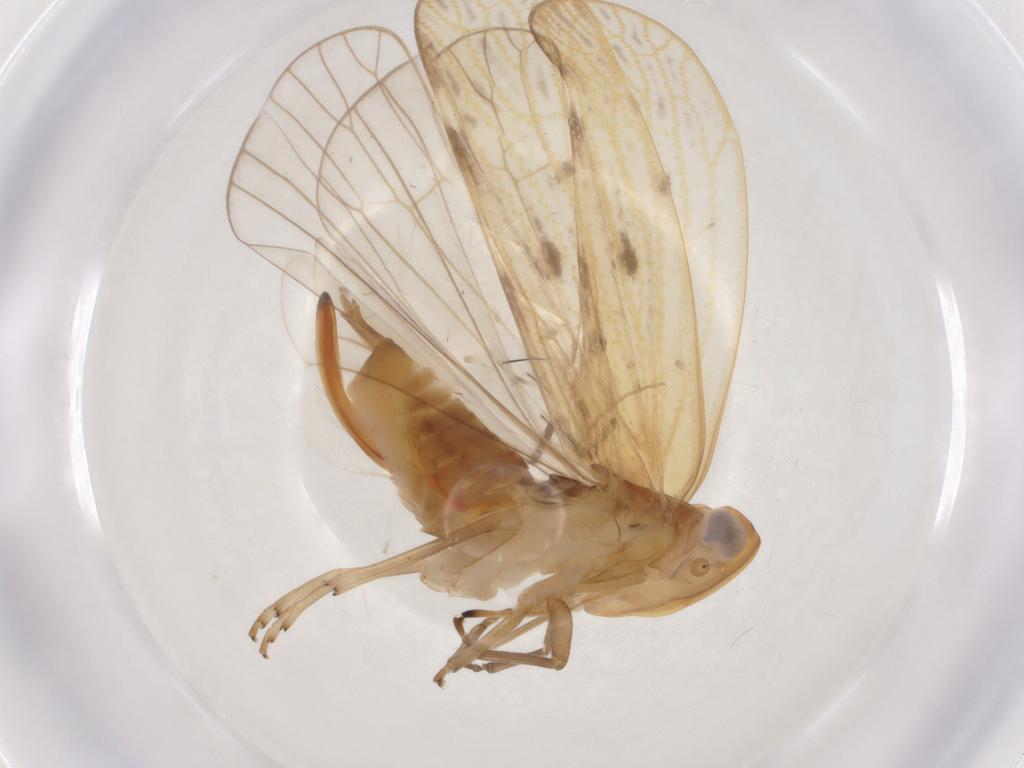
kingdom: Animalia
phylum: Arthropoda
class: Insecta
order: Hemiptera
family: Cixiidae
